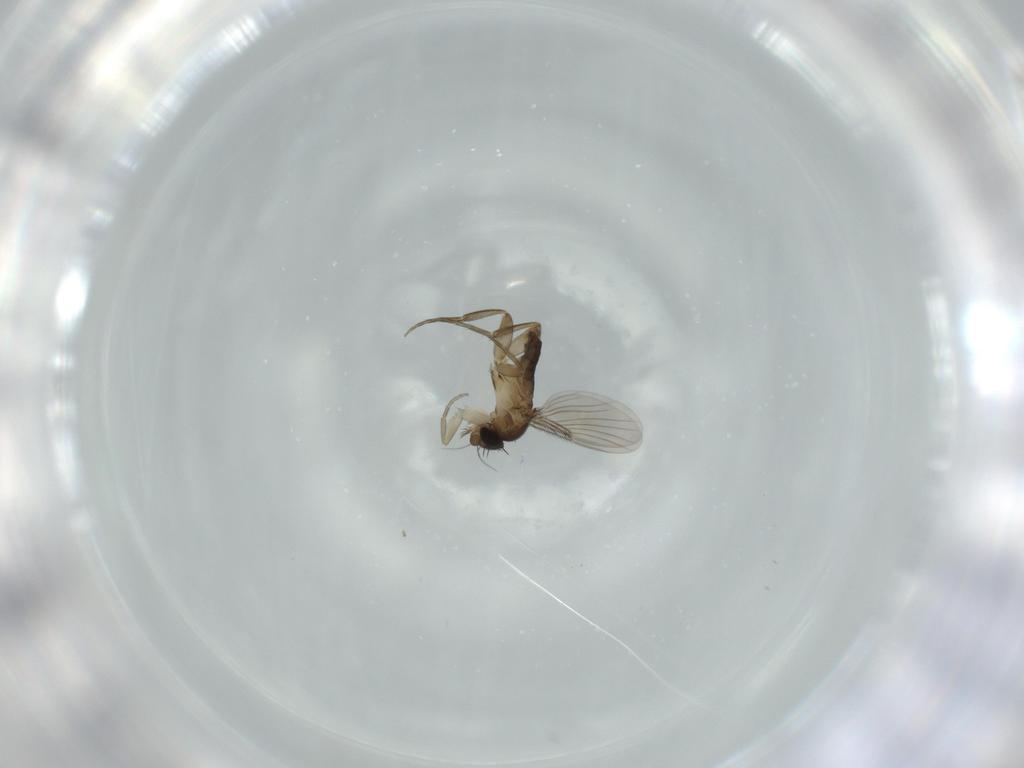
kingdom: Animalia
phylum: Arthropoda
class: Insecta
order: Diptera
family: Phoridae
